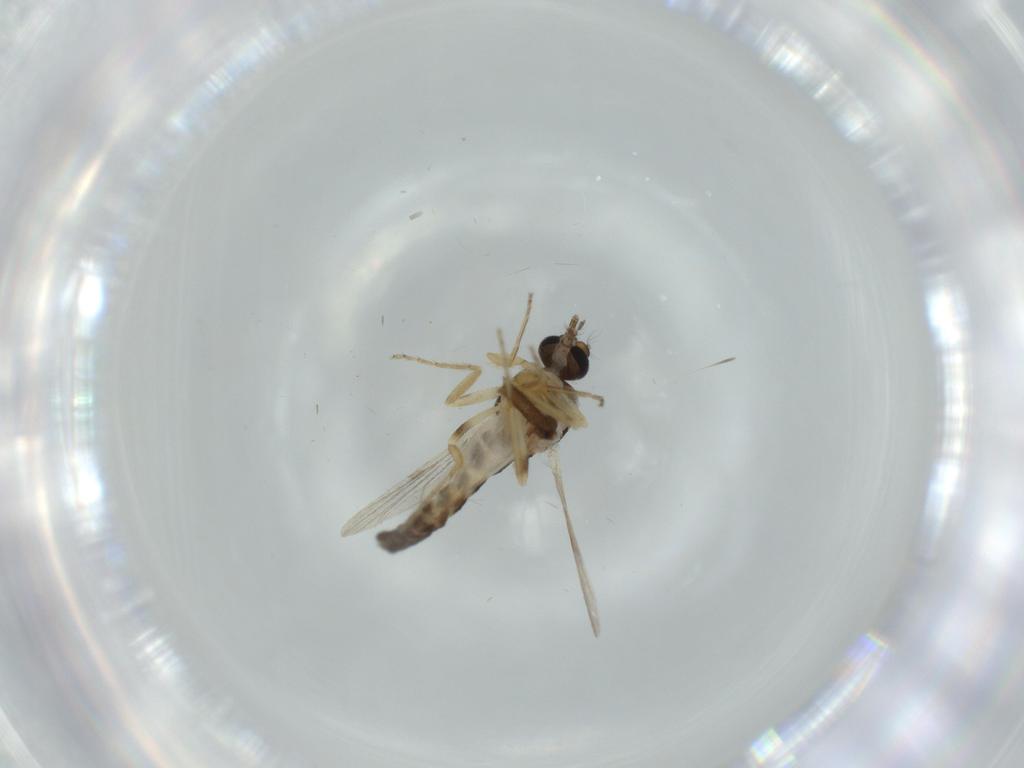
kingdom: Animalia
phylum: Arthropoda
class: Insecta
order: Diptera
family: Ceratopogonidae
